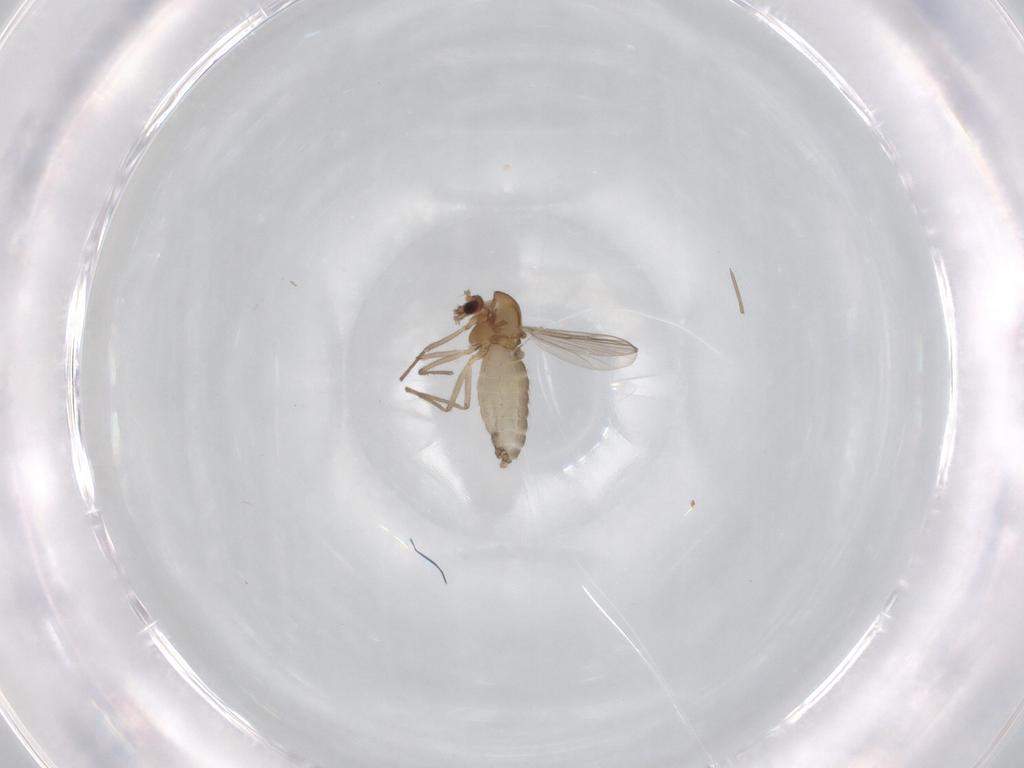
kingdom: Animalia
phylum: Arthropoda
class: Insecta
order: Diptera
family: Chironomidae
